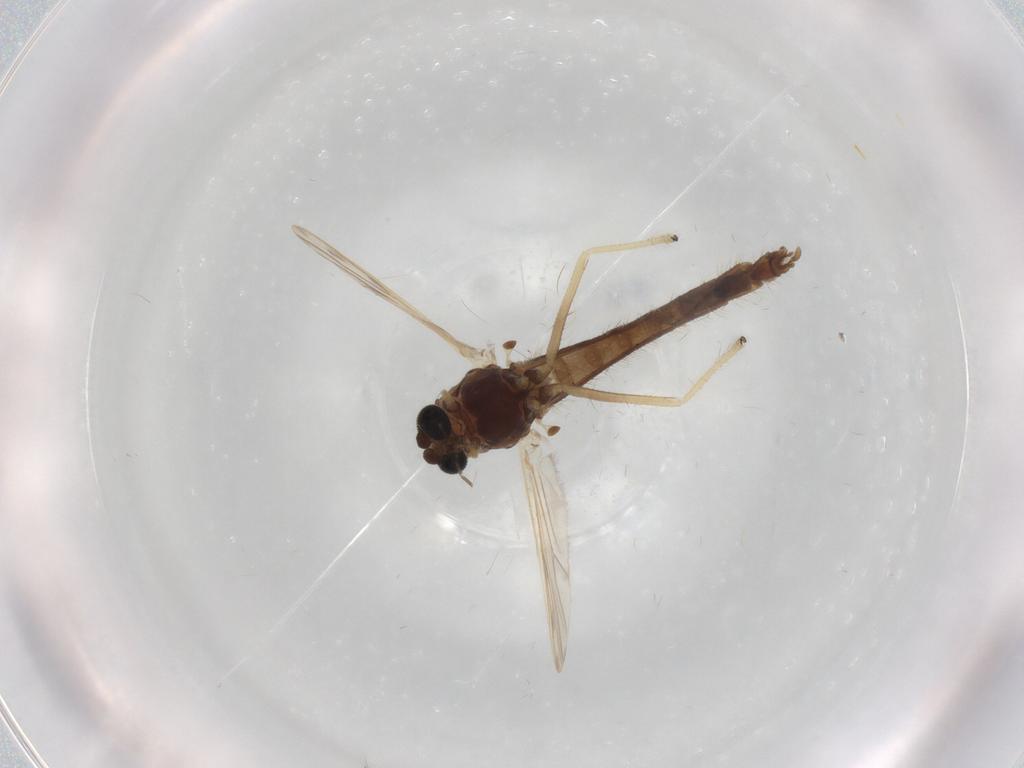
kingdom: Animalia
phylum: Arthropoda
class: Insecta
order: Diptera
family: Chironomidae
